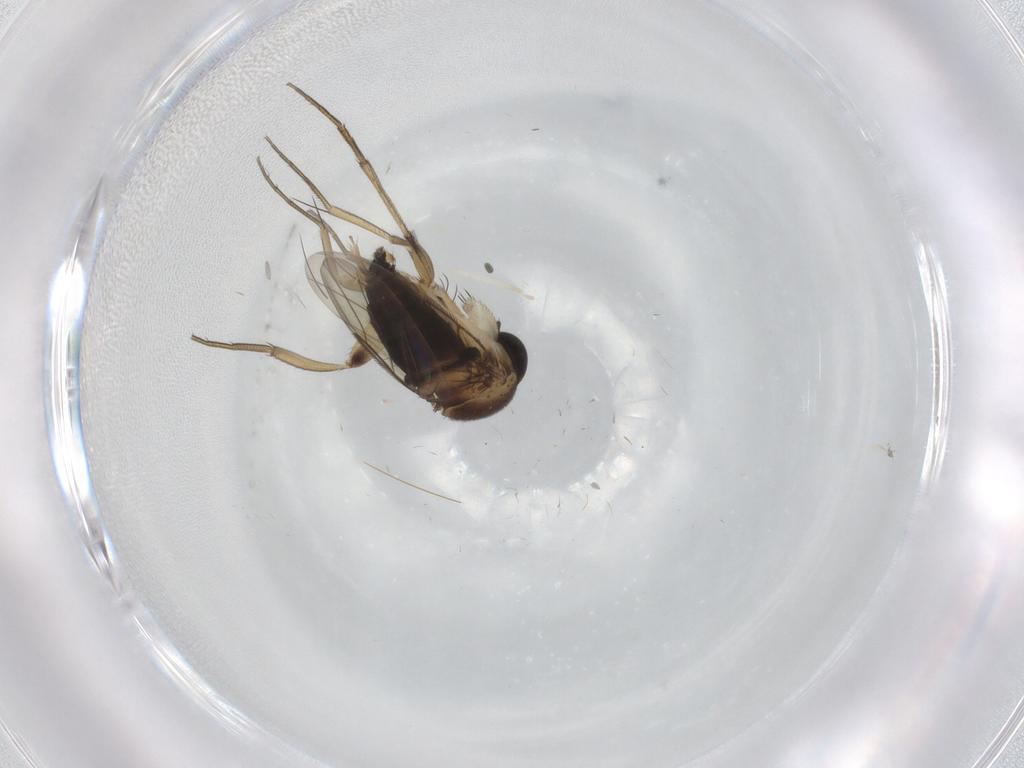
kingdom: Animalia
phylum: Arthropoda
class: Insecta
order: Diptera
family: Phoridae
